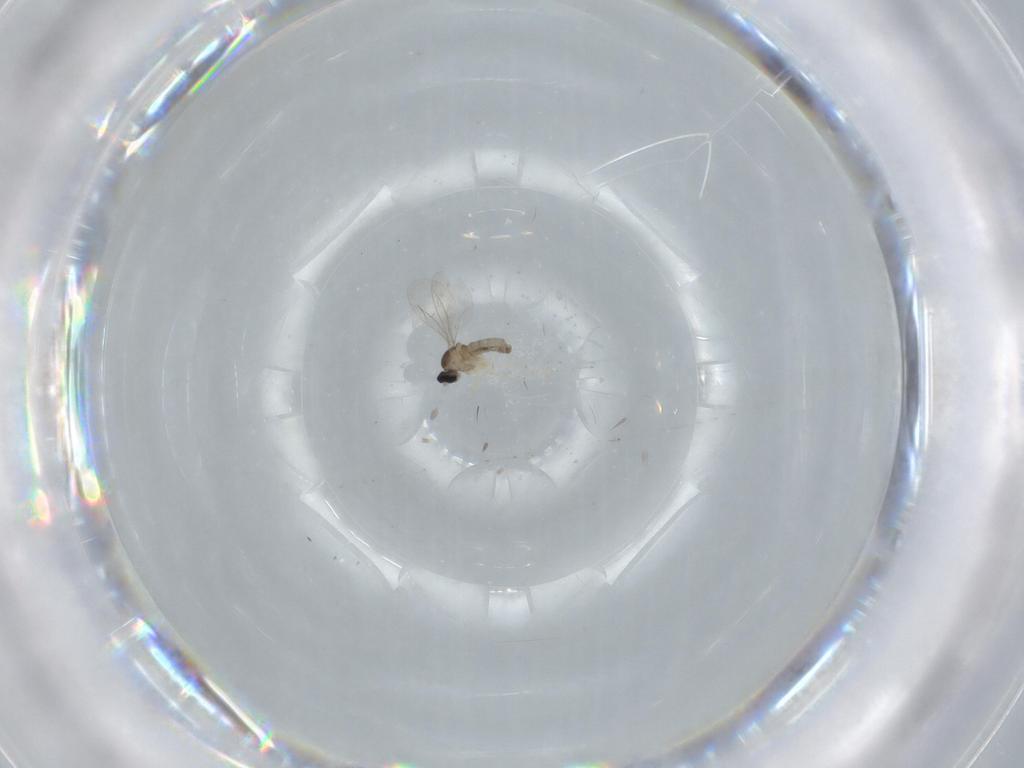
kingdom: Animalia
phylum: Arthropoda
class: Insecta
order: Diptera
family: Cecidomyiidae
